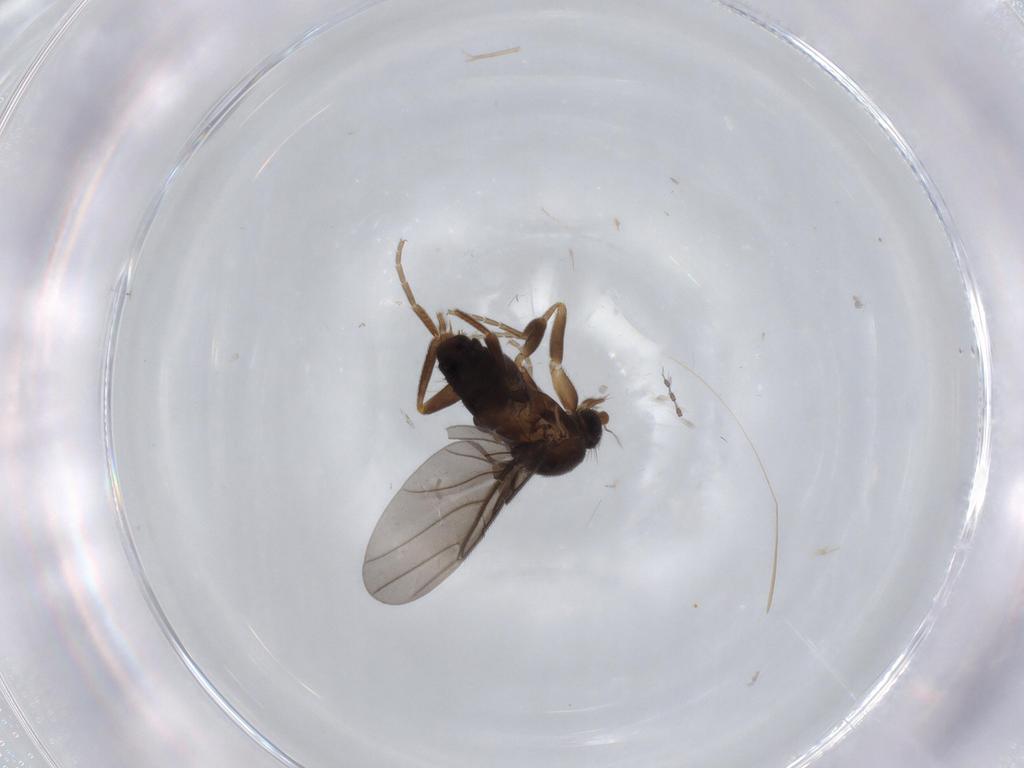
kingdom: Animalia
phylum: Arthropoda
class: Insecta
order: Diptera
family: Phoridae
